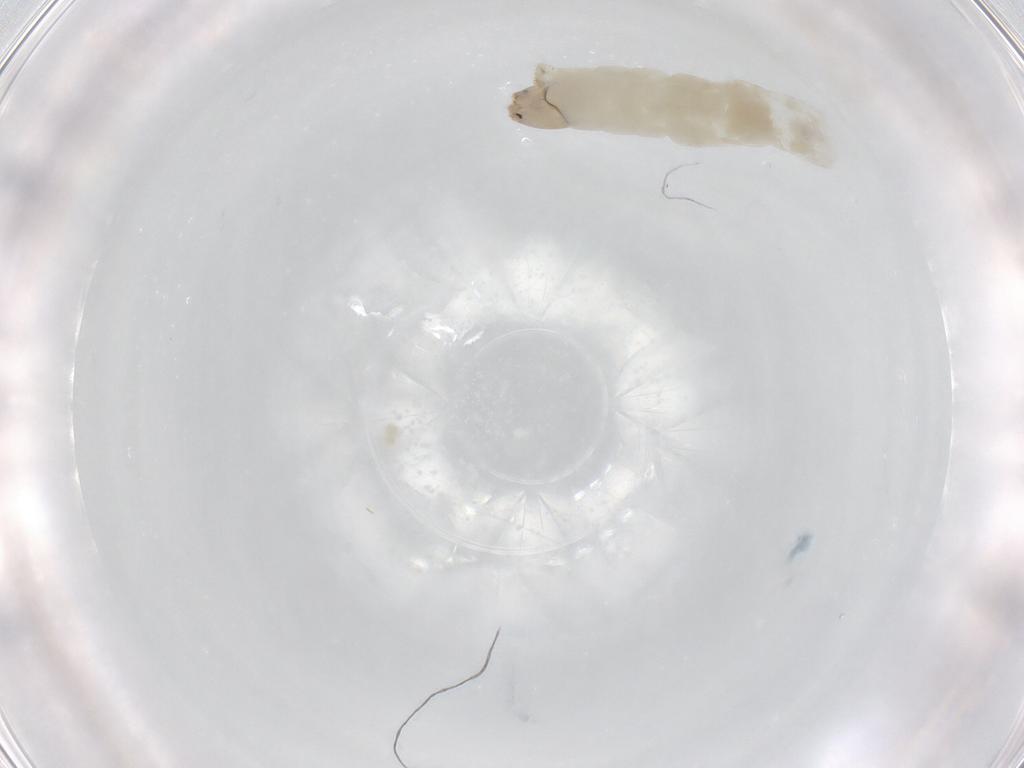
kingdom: Animalia
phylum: Arthropoda
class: Insecta
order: Diptera
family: Chironomidae
